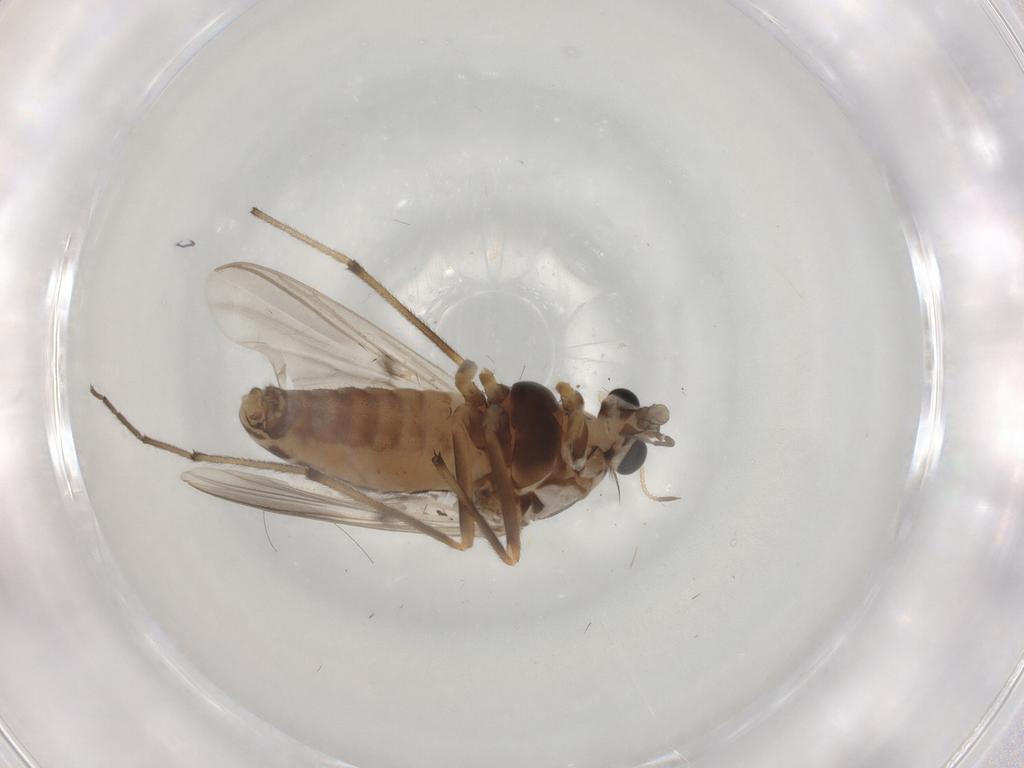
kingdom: Animalia
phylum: Arthropoda
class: Insecta
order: Diptera
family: Chironomidae
